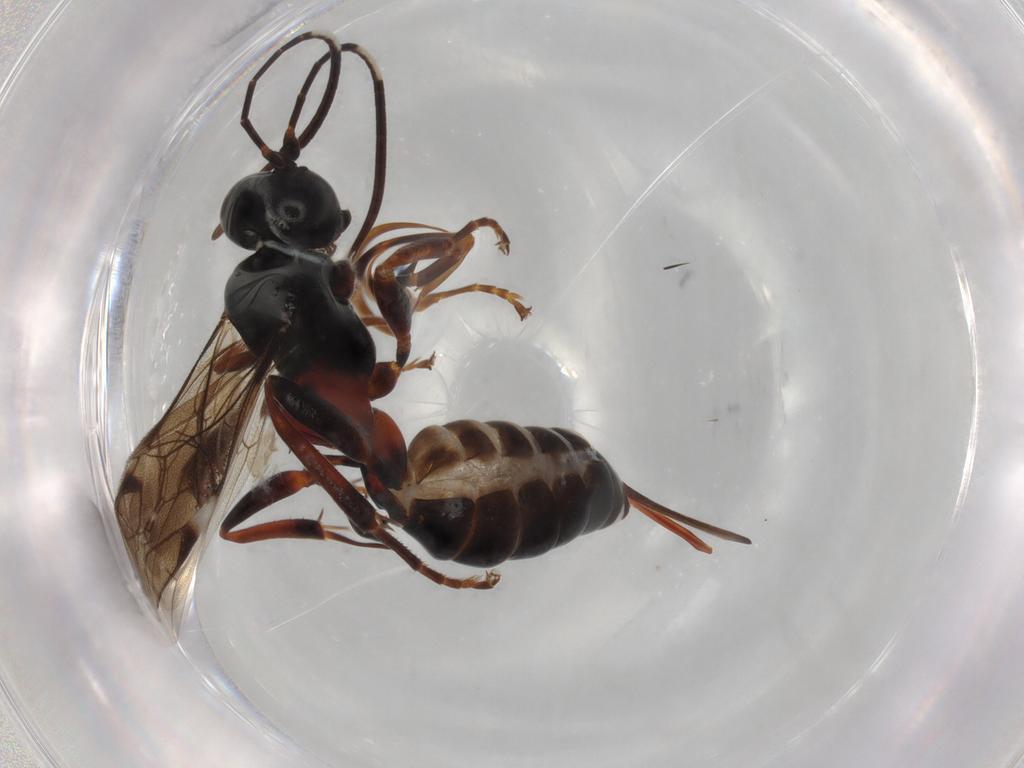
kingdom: Animalia
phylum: Arthropoda
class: Insecta
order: Hymenoptera
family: Ichneumonidae
